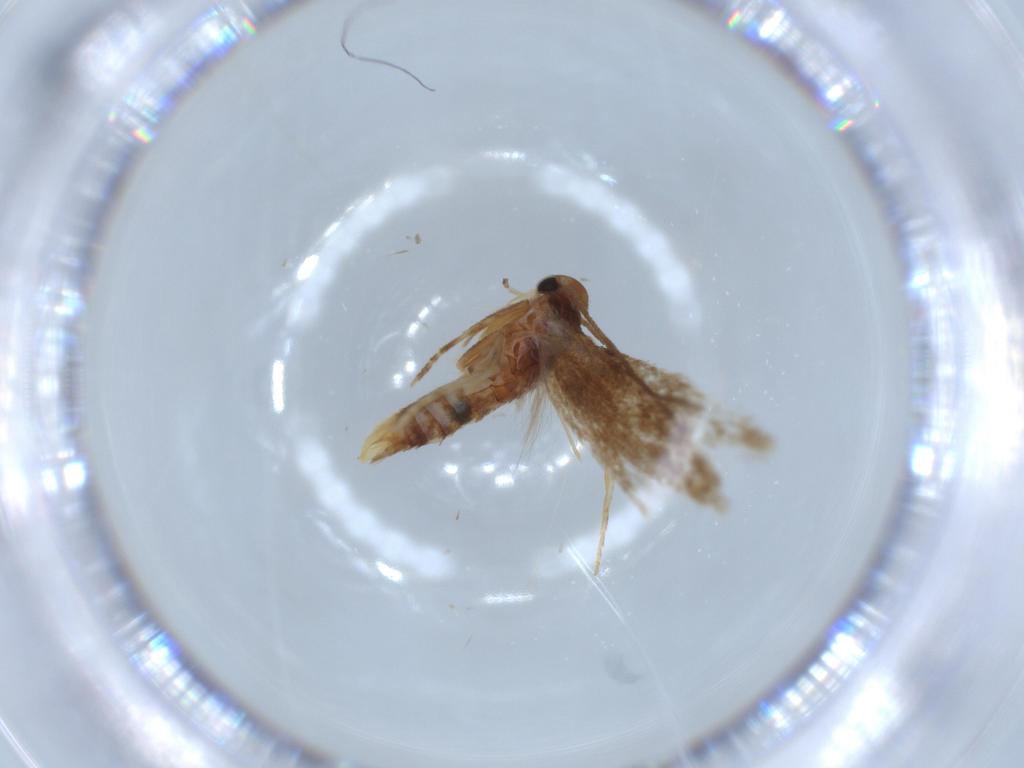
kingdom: Animalia
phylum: Arthropoda
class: Insecta
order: Lepidoptera
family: Elachistidae
